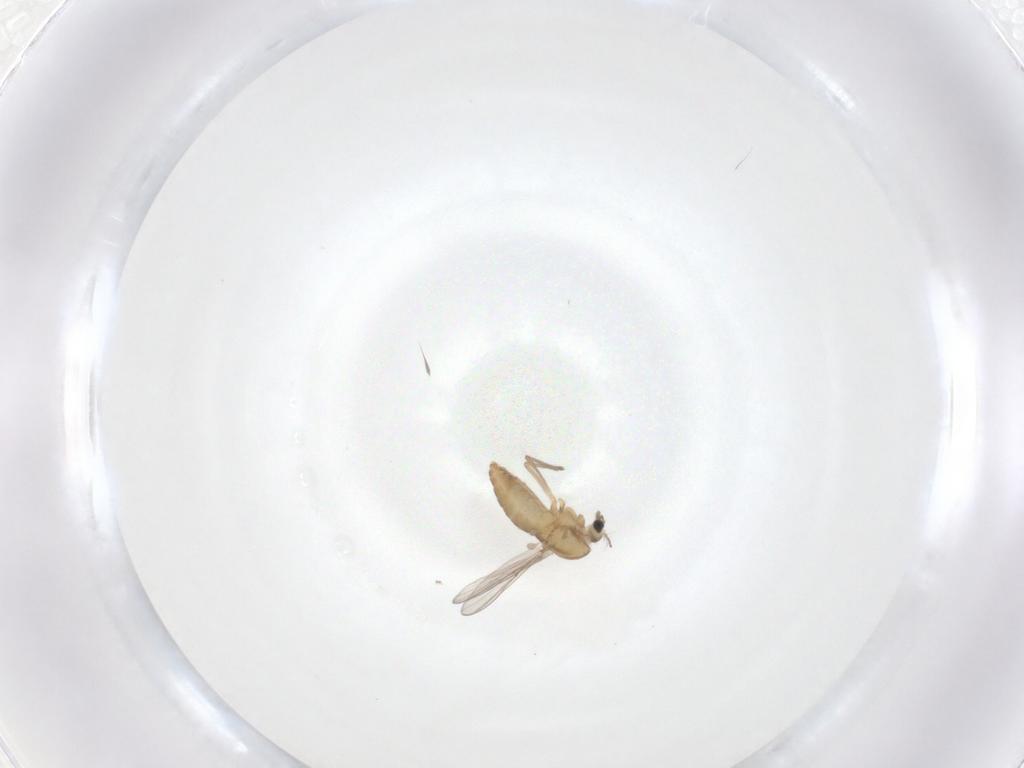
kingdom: Animalia
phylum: Arthropoda
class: Insecta
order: Diptera
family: Chironomidae
